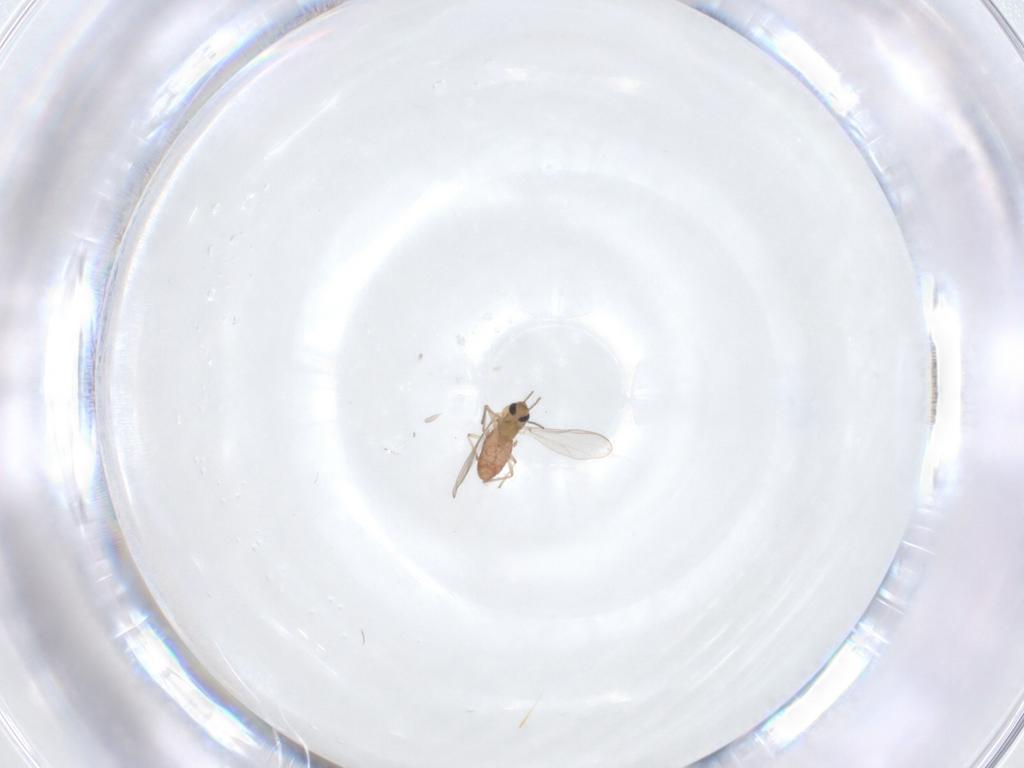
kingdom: Animalia
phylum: Arthropoda
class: Insecta
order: Diptera
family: Chironomidae
